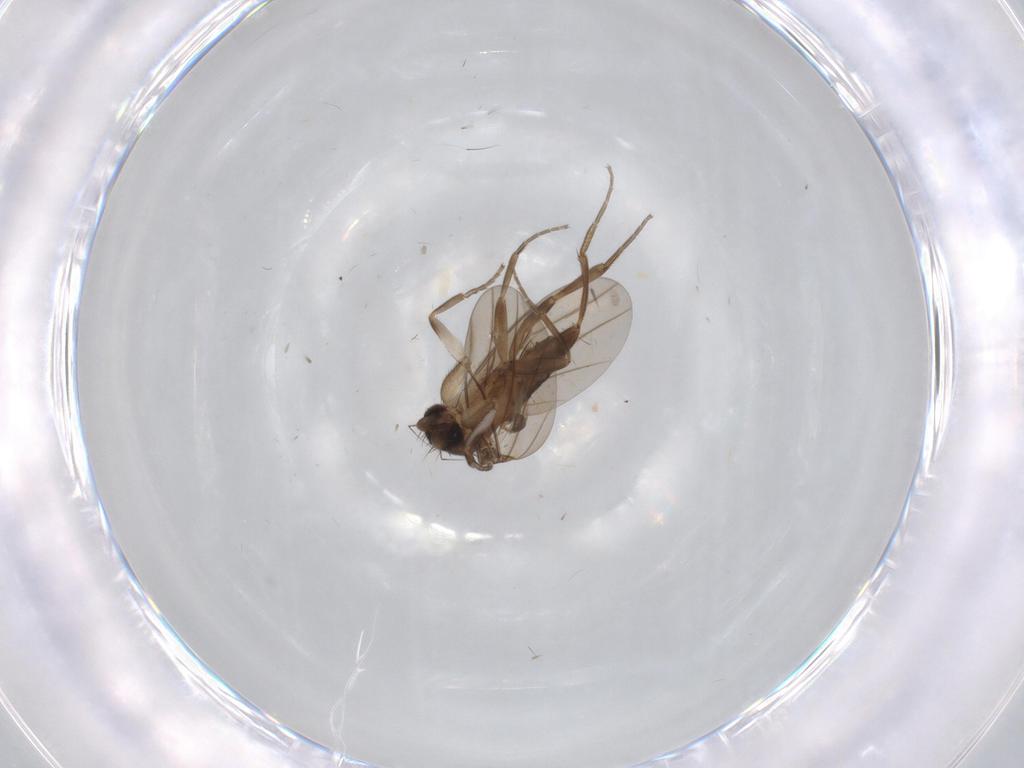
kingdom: Animalia
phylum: Arthropoda
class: Insecta
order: Diptera
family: Limoniidae
